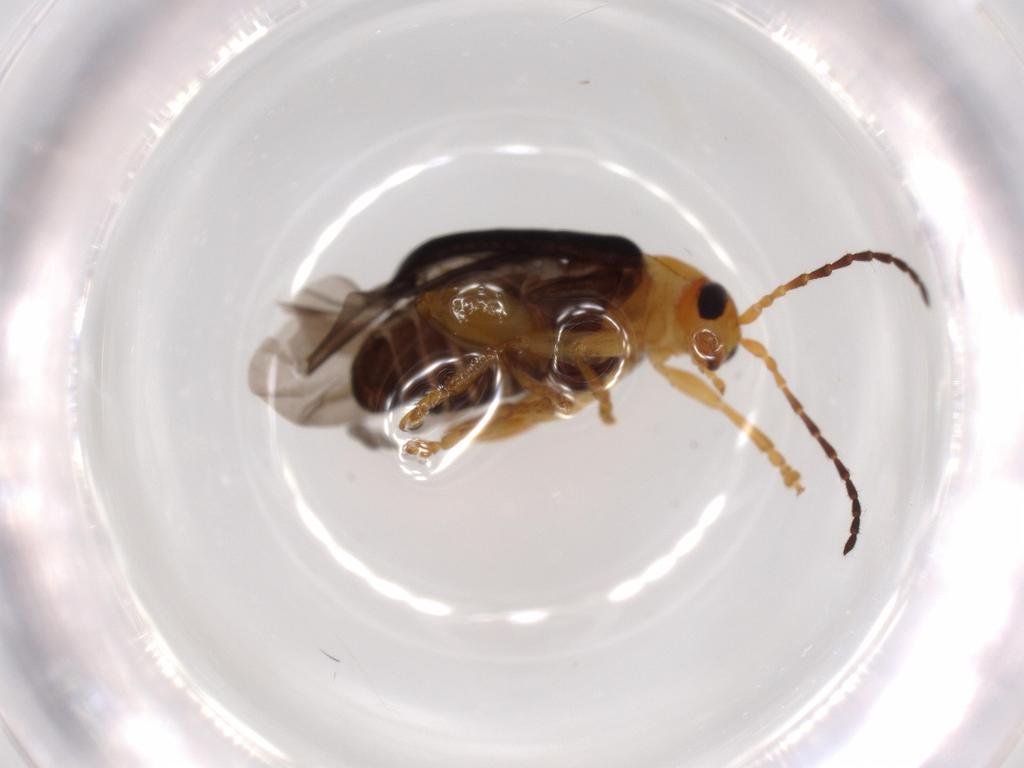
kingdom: Animalia
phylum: Arthropoda
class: Insecta
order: Coleoptera
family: Chrysomelidae
